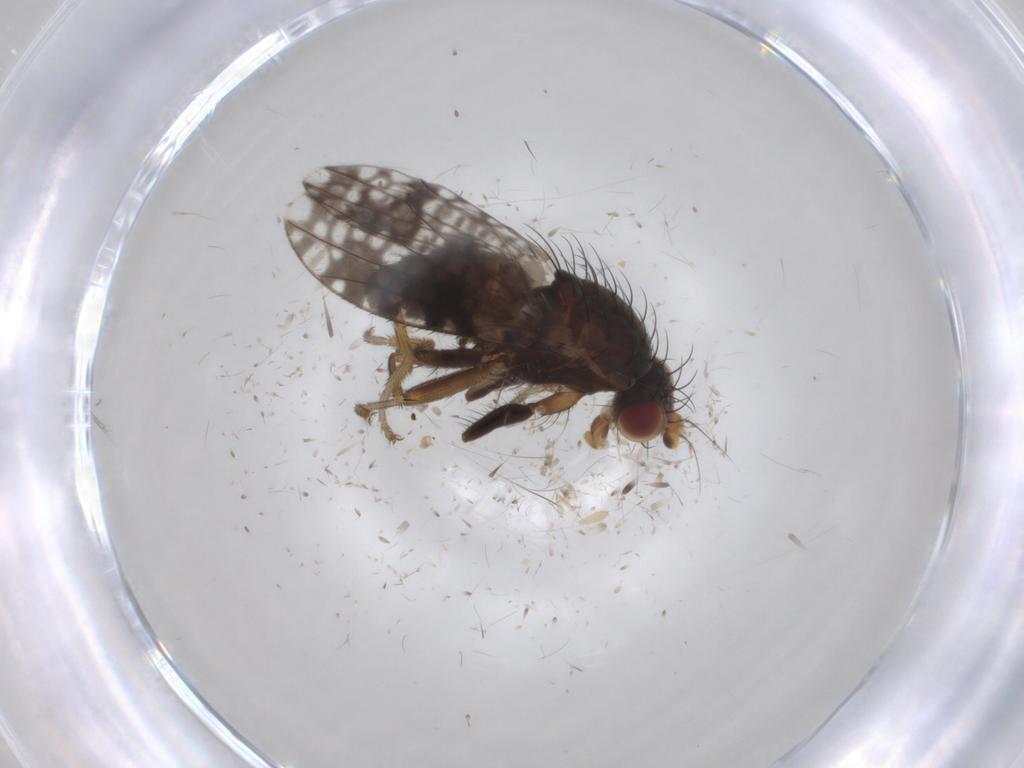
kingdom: Animalia
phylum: Arthropoda
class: Insecta
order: Diptera
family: Tephritidae
